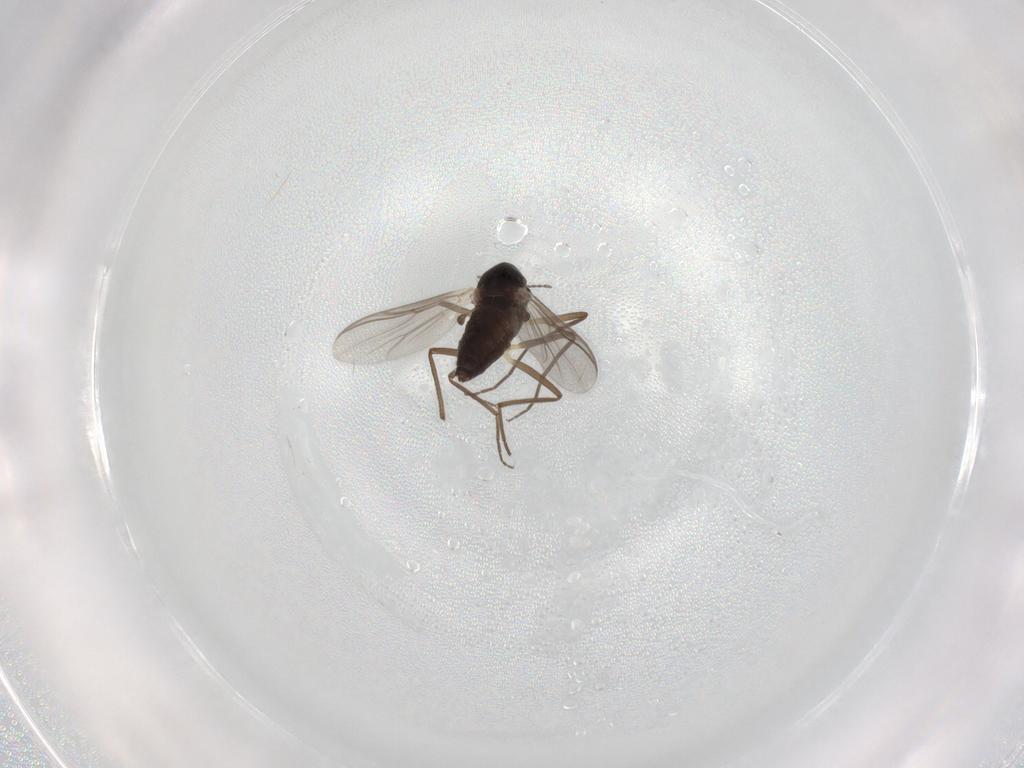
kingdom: Animalia
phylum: Arthropoda
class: Insecta
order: Diptera
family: Chironomidae
